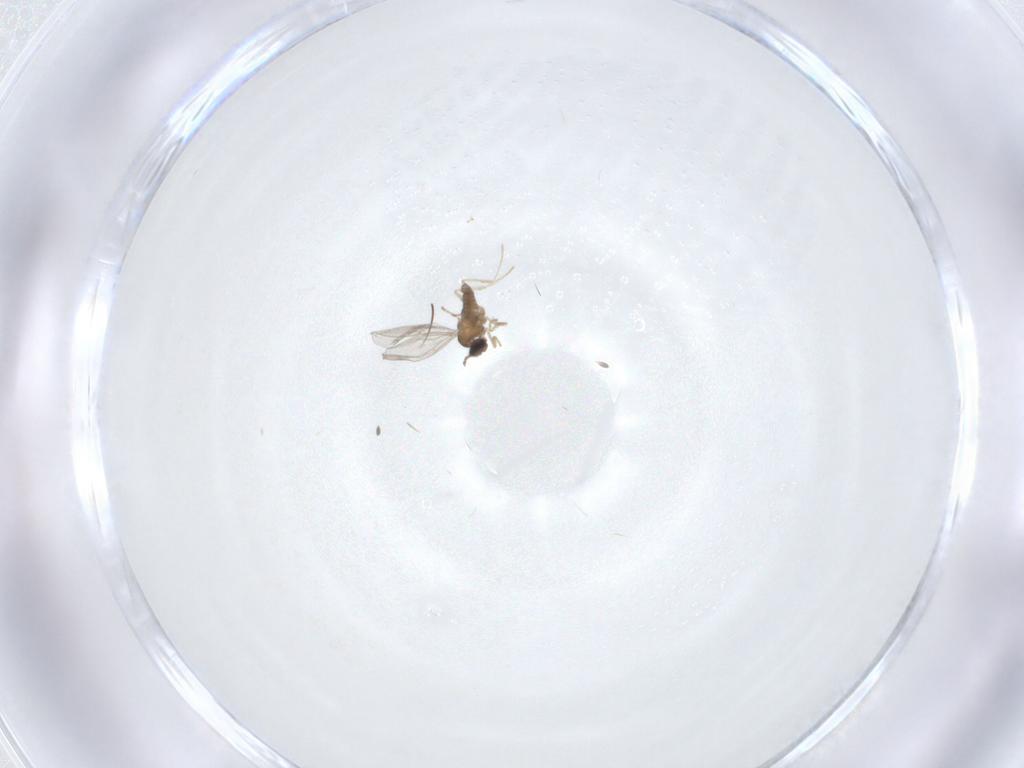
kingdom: Animalia
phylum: Arthropoda
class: Insecta
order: Diptera
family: Cecidomyiidae
